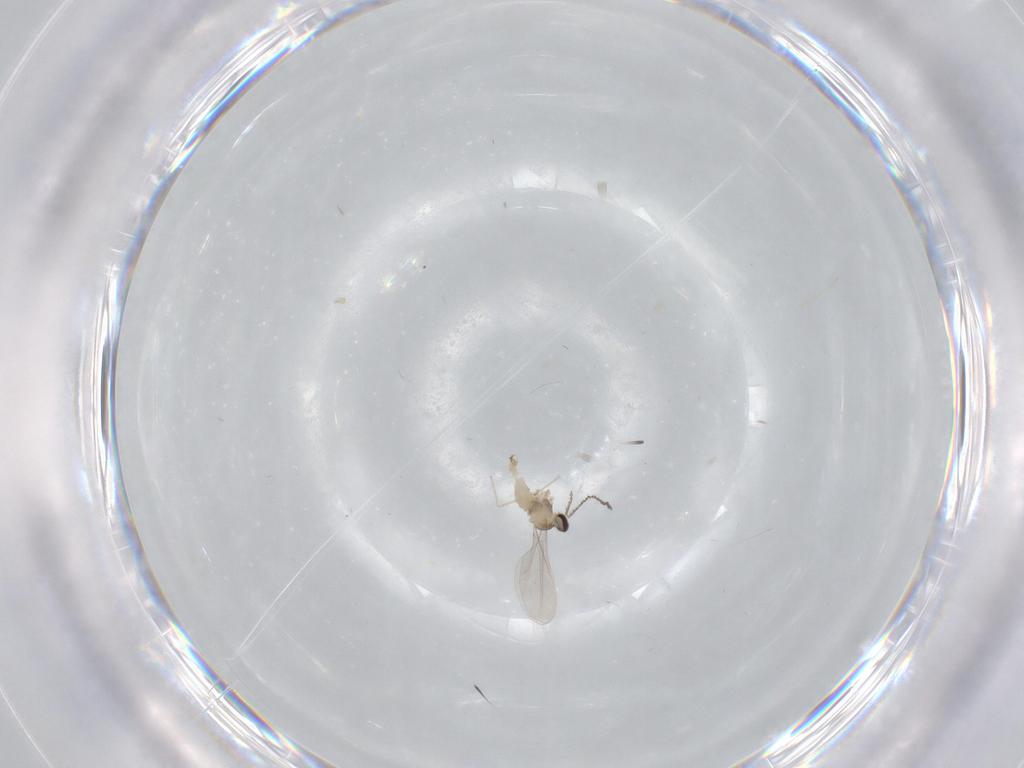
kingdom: Animalia
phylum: Arthropoda
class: Insecta
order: Diptera
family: Cecidomyiidae
